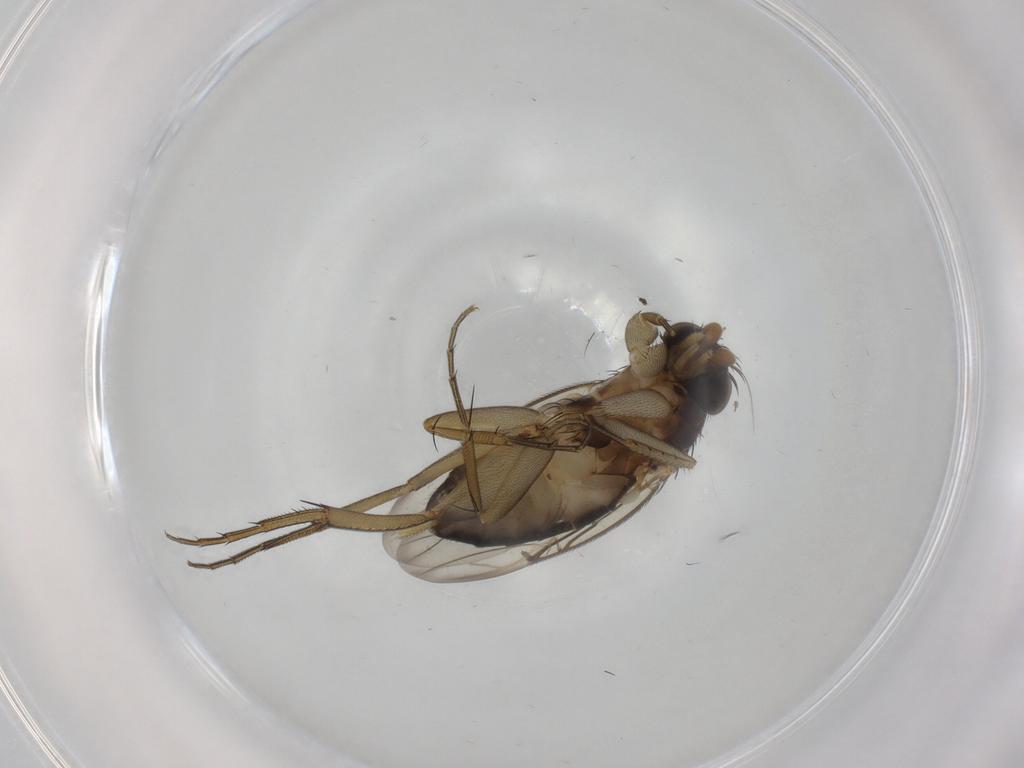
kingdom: Animalia
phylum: Arthropoda
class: Insecta
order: Diptera
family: Phoridae
